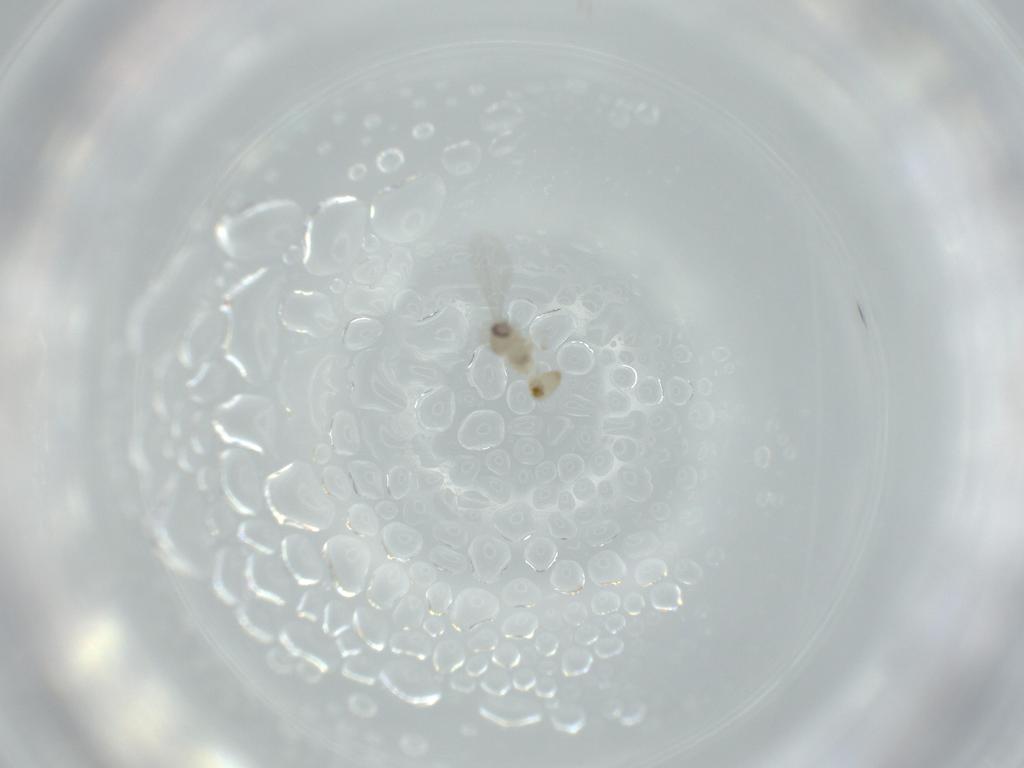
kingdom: Animalia
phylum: Arthropoda
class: Insecta
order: Diptera
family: Cecidomyiidae
